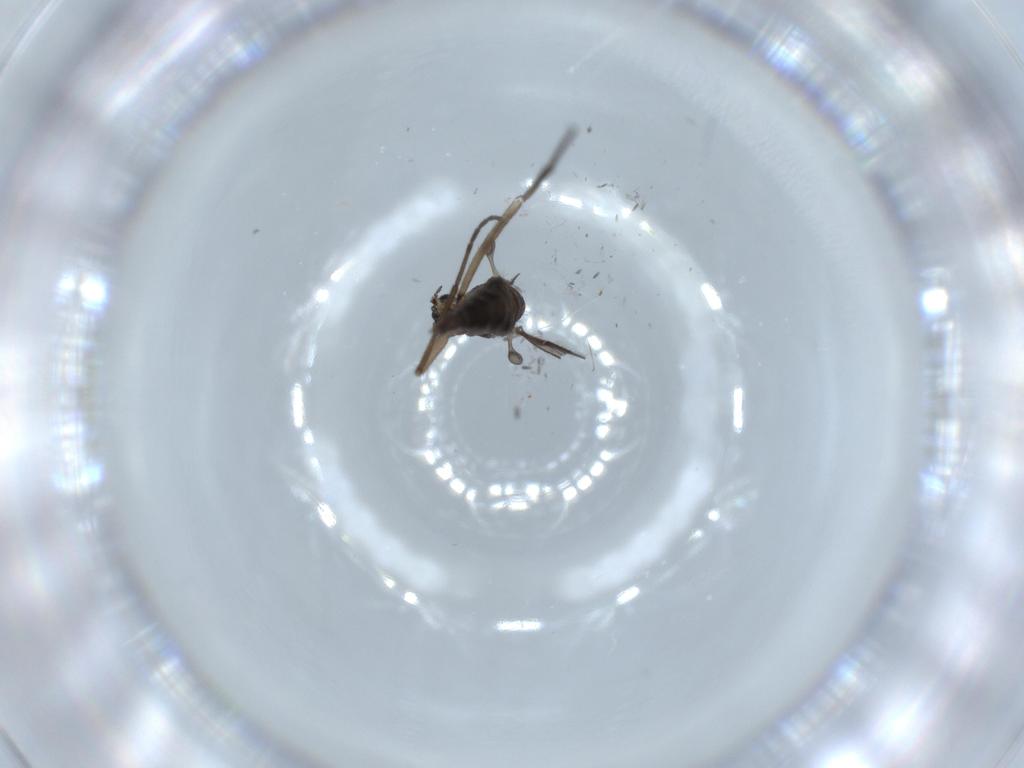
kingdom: Animalia
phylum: Arthropoda
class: Insecta
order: Diptera
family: Sciaridae
